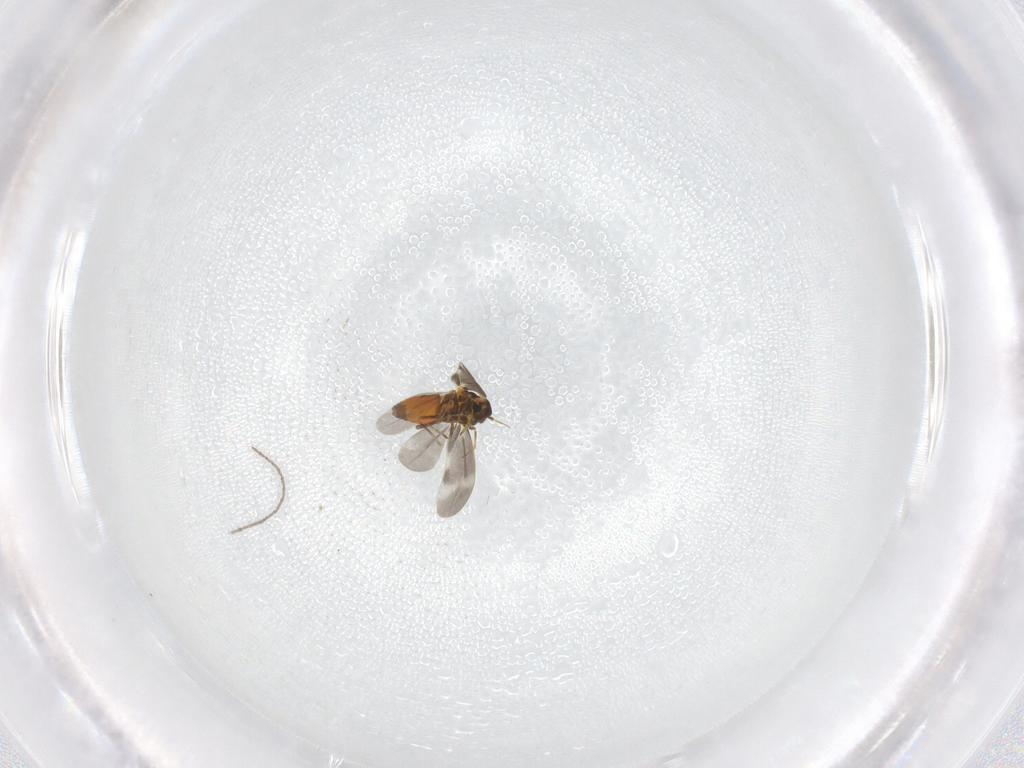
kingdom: Animalia
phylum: Arthropoda
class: Insecta
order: Hemiptera
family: Aleyrodidae
